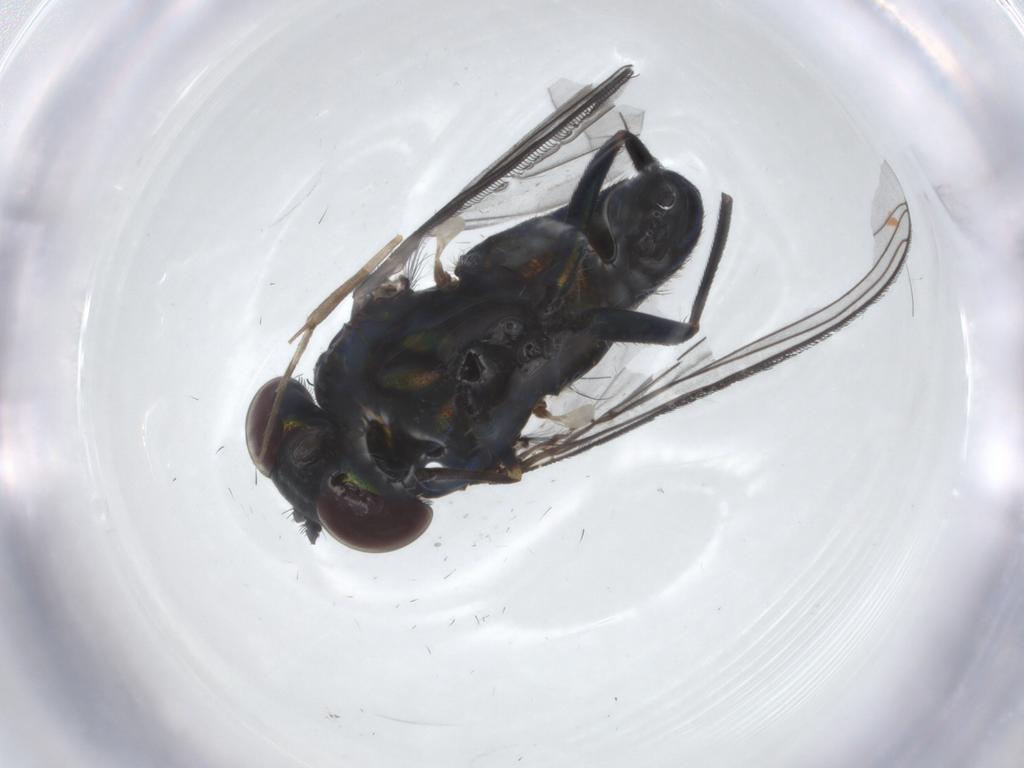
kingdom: Animalia
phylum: Arthropoda
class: Insecta
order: Diptera
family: Dolichopodidae
